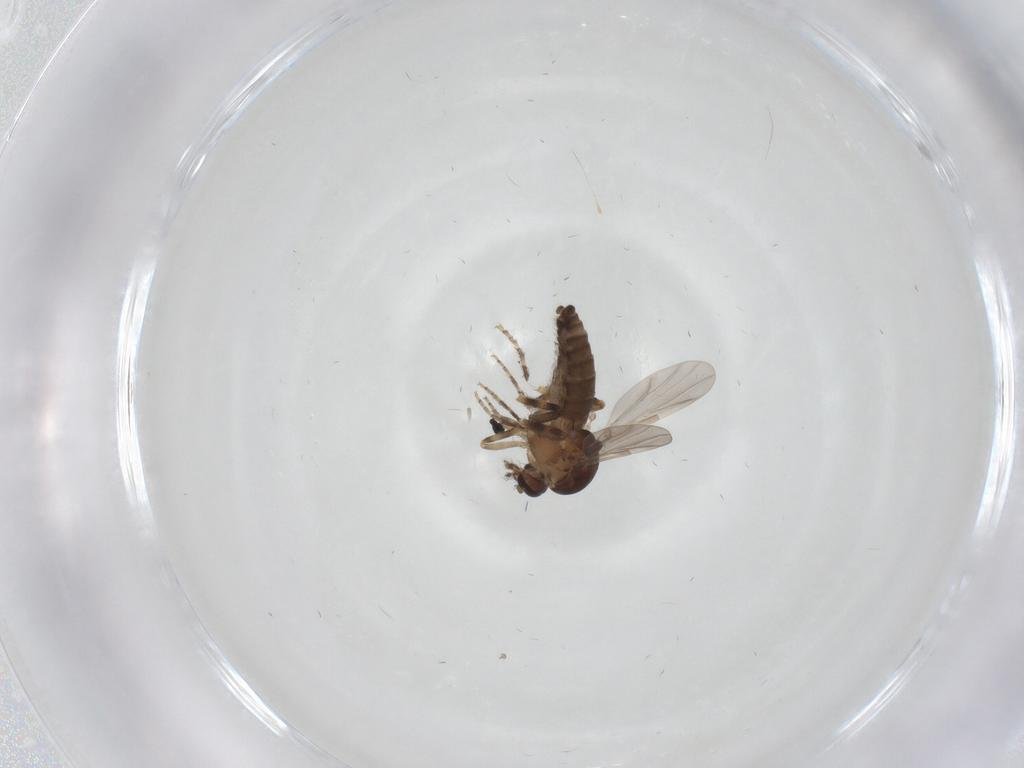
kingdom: Animalia
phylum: Arthropoda
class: Insecta
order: Diptera
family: Ceratopogonidae
